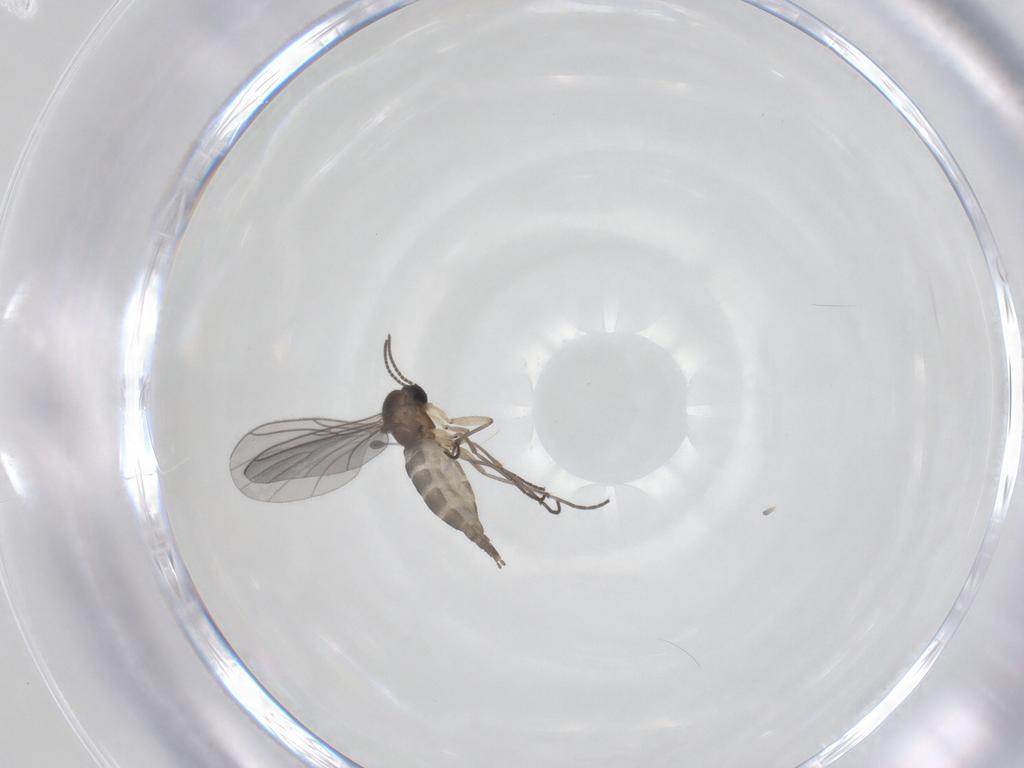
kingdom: Animalia
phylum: Arthropoda
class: Insecta
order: Diptera
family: Sciaridae
